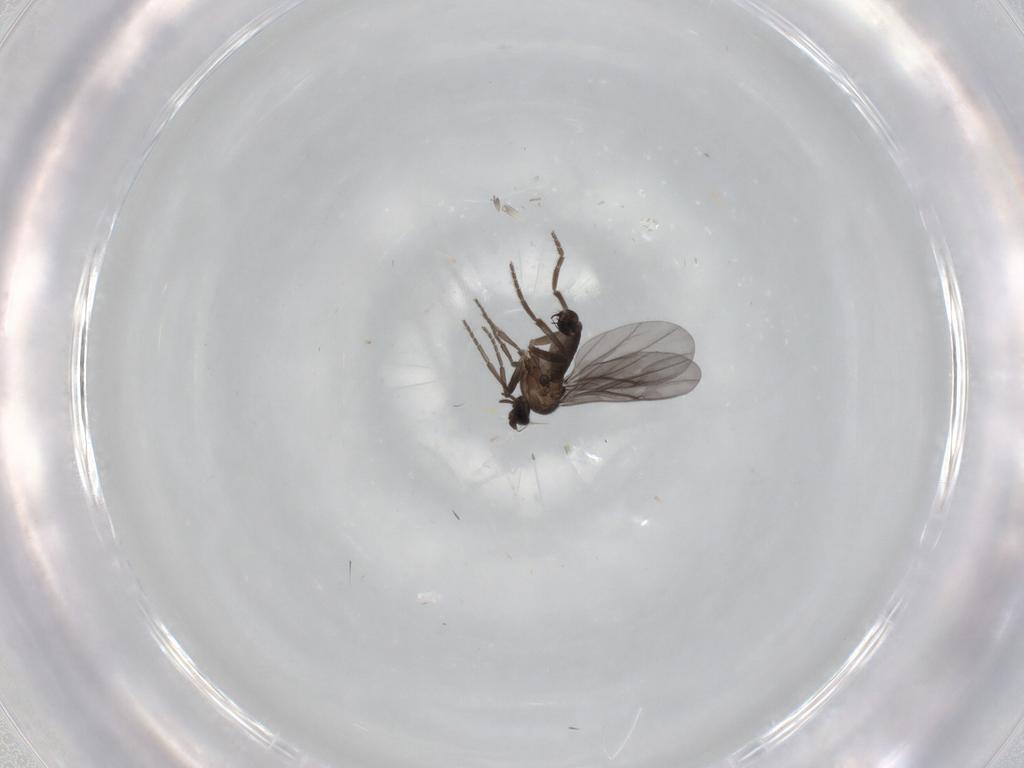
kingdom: Animalia
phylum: Arthropoda
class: Insecta
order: Diptera
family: Phoridae
